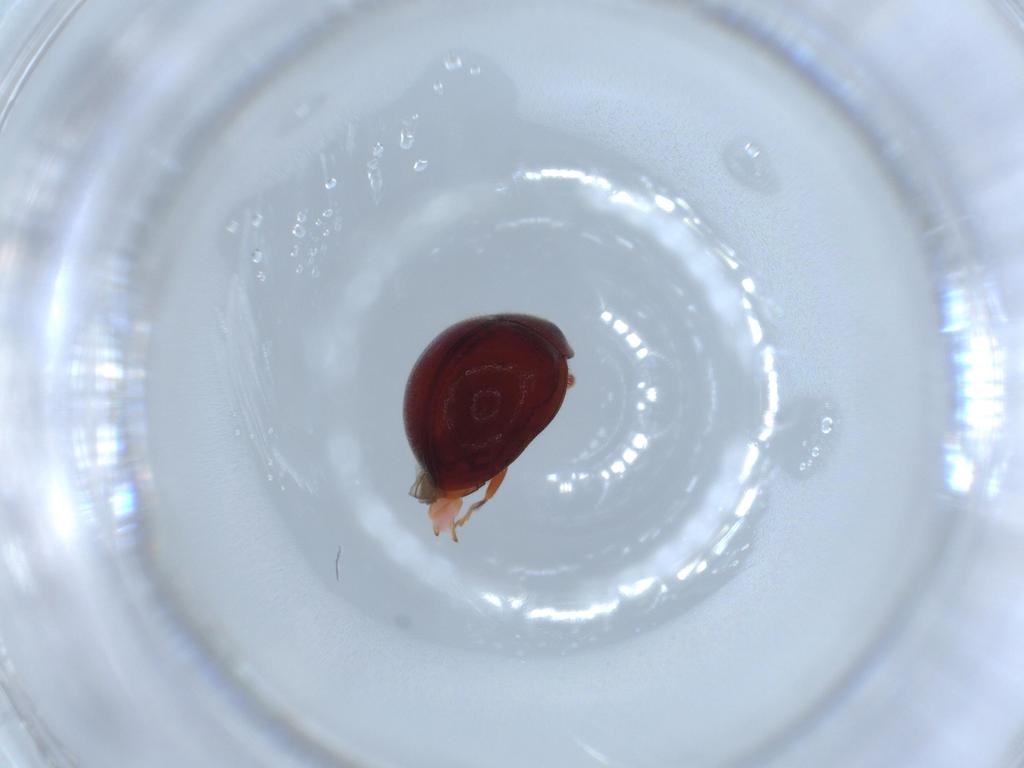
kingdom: Animalia
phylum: Arthropoda
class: Insecta
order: Coleoptera
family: Coccinellidae
